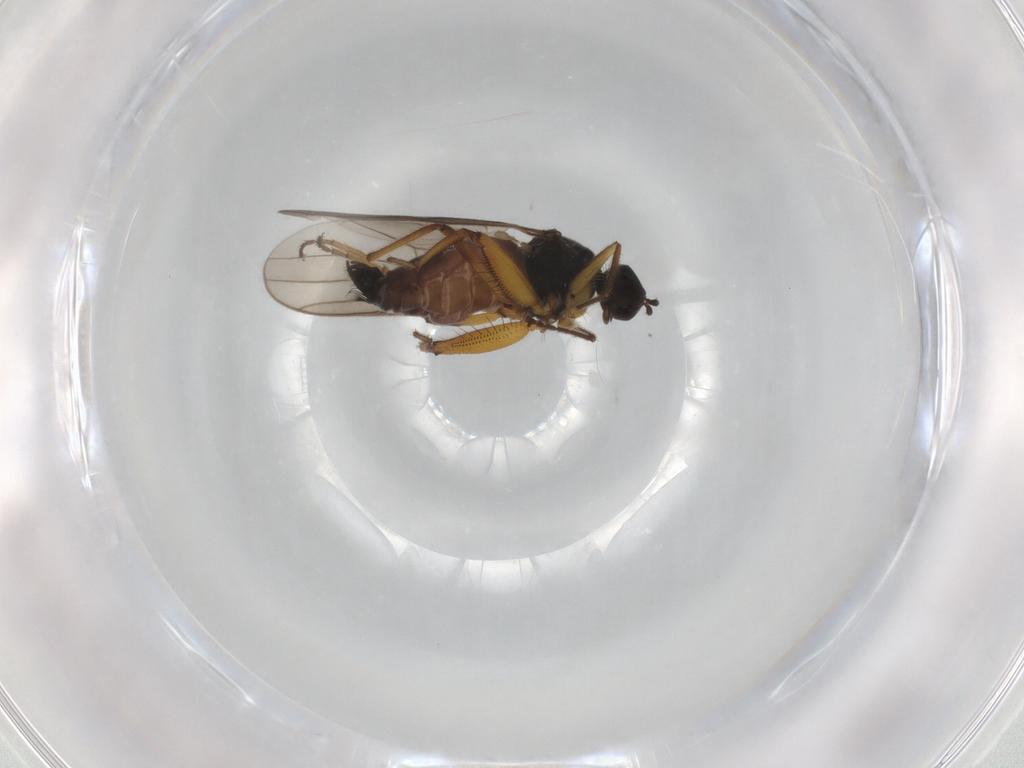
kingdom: Animalia
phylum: Arthropoda
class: Insecta
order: Diptera
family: Hybotidae
